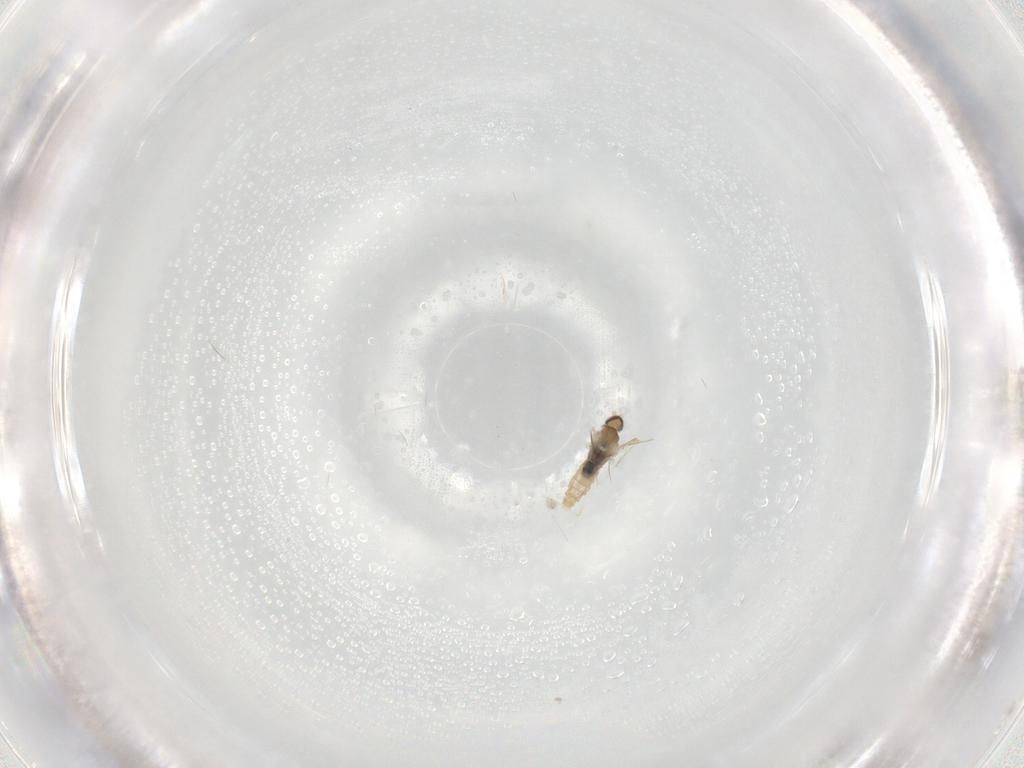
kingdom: Animalia
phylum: Arthropoda
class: Insecta
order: Diptera
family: Cecidomyiidae
